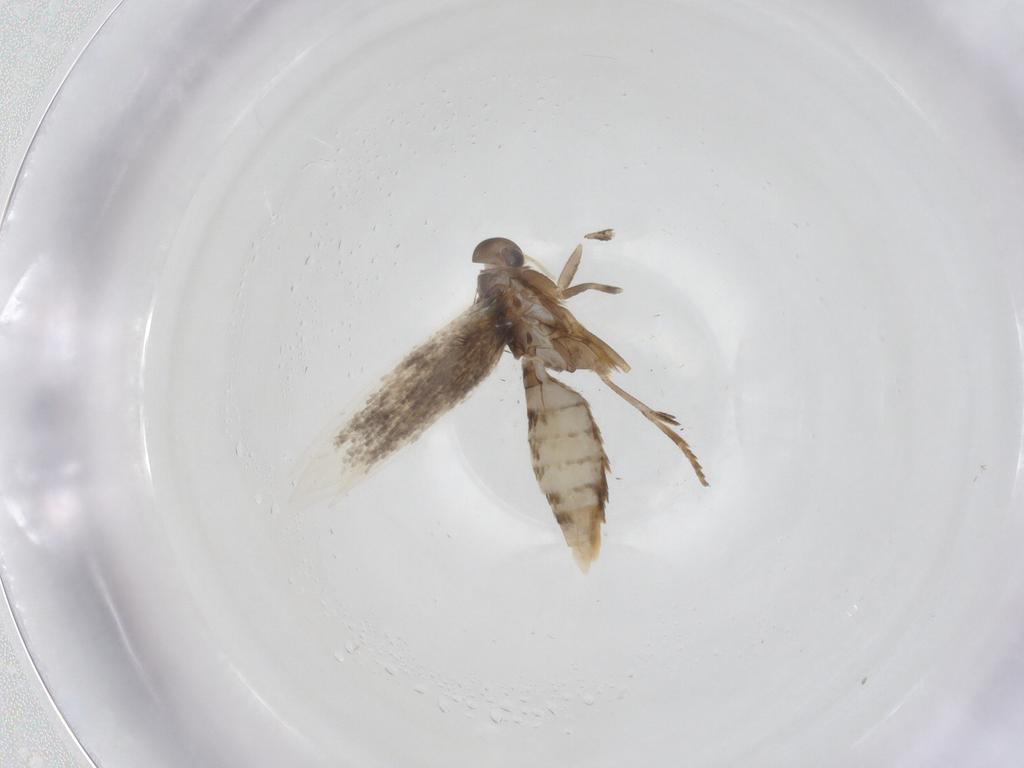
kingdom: Animalia
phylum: Arthropoda
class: Insecta
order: Lepidoptera
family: Elachistidae
